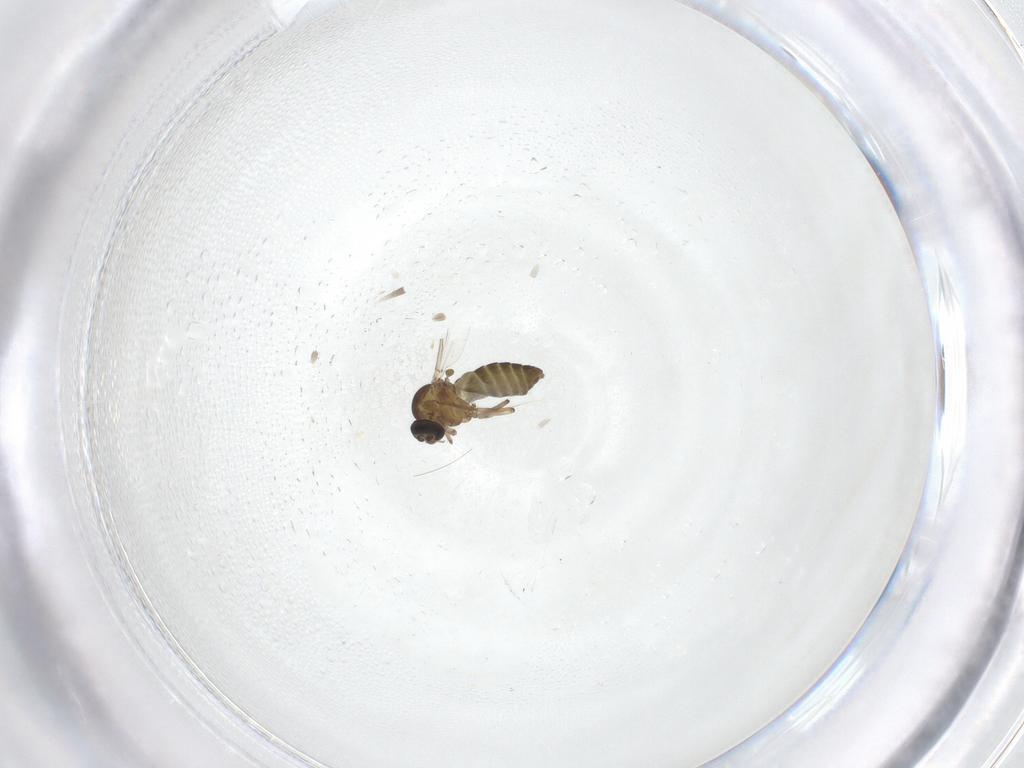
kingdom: Animalia
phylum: Arthropoda
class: Insecta
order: Diptera
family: Ceratopogonidae
